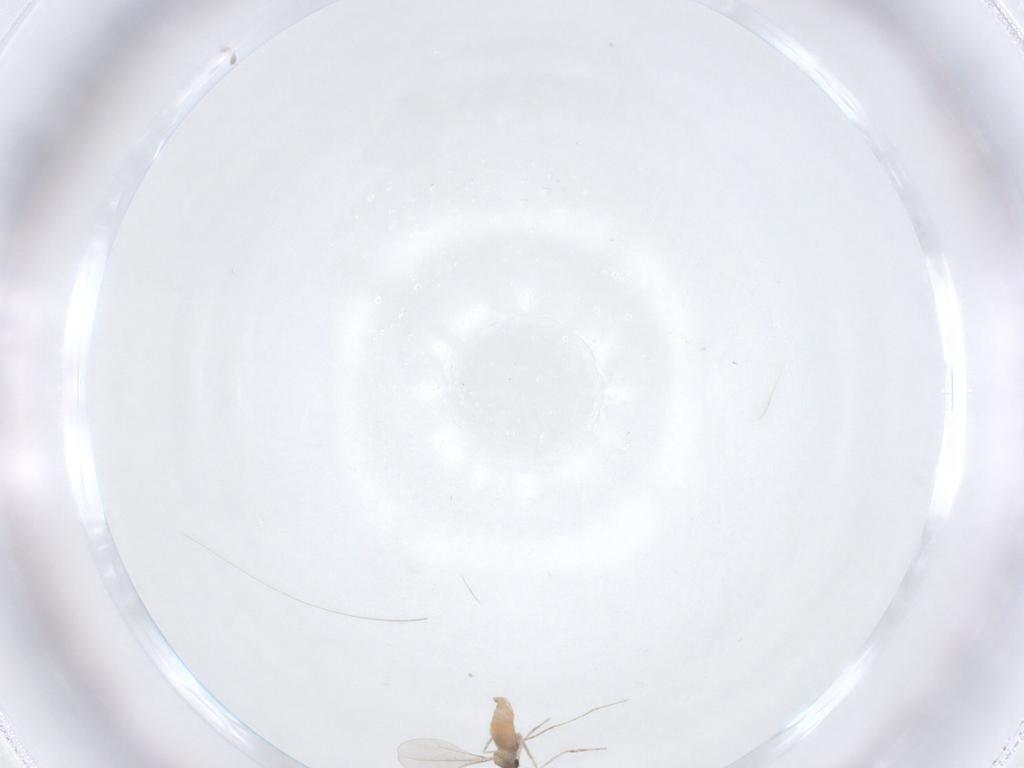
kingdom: Animalia
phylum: Arthropoda
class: Insecta
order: Diptera
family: Cecidomyiidae
